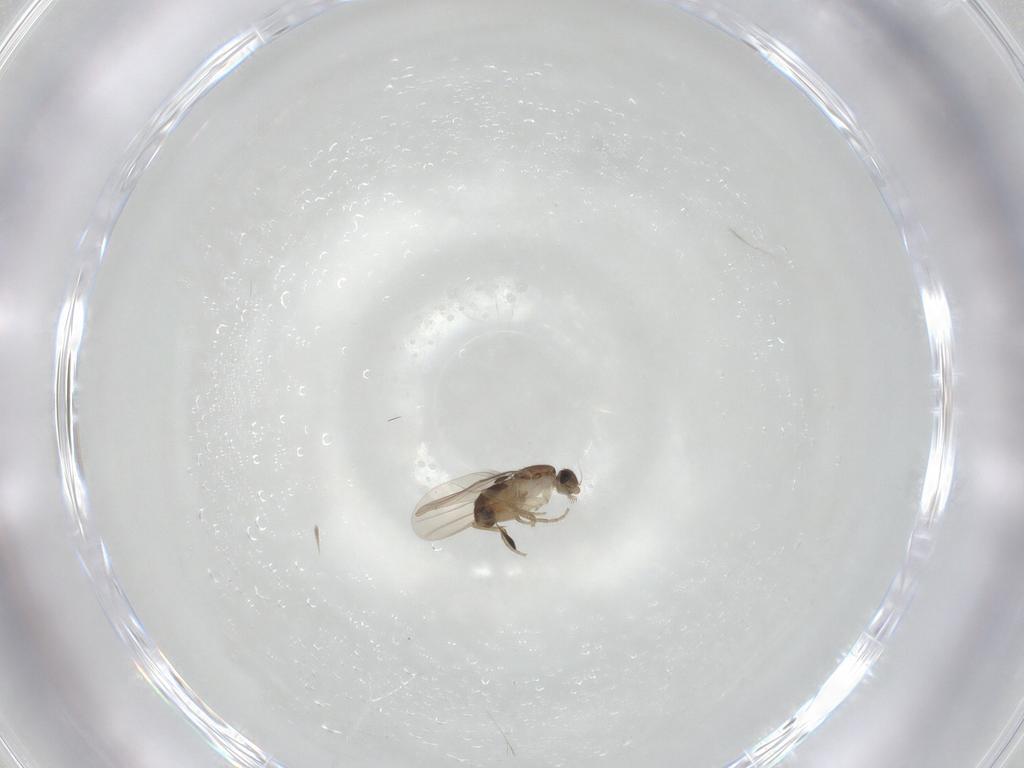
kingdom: Animalia
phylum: Arthropoda
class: Insecta
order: Diptera
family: Phoridae
